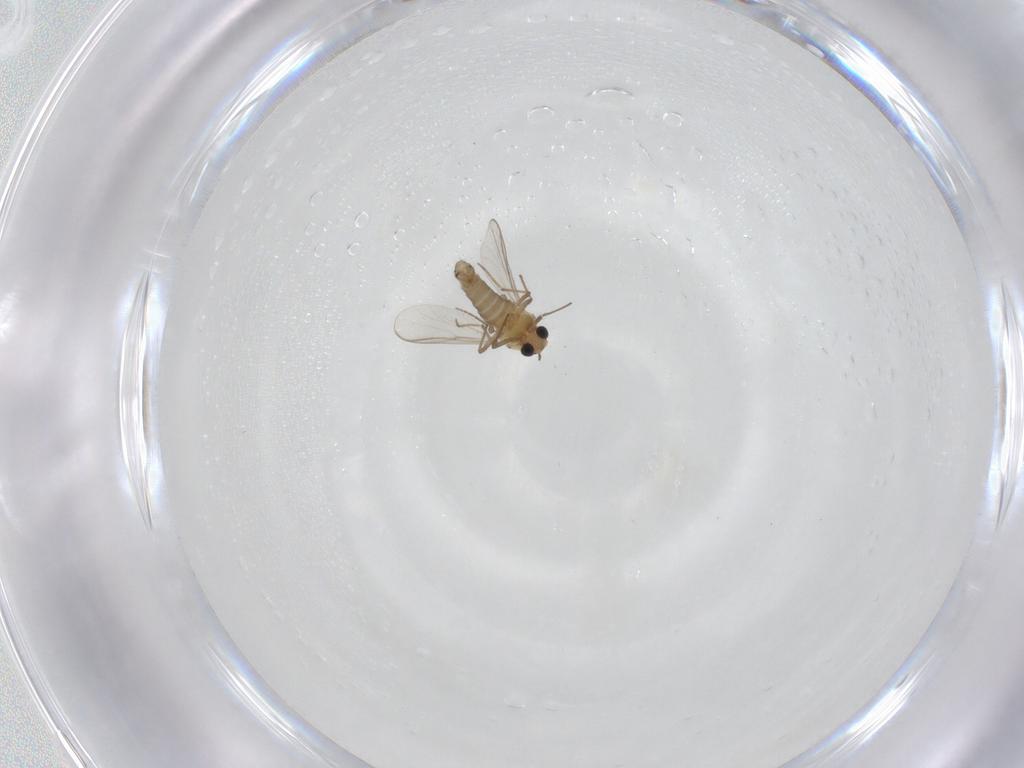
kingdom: Animalia
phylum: Arthropoda
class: Insecta
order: Diptera
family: Chironomidae
